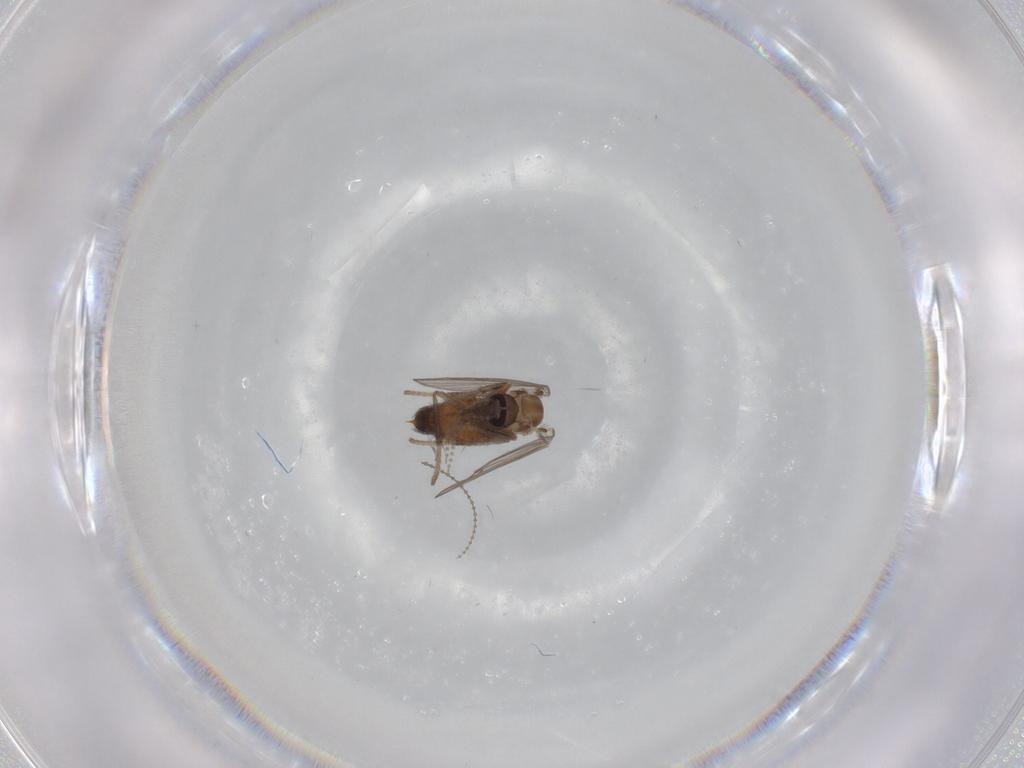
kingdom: Animalia
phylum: Arthropoda
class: Insecta
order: Diptera
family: Psychodidae
